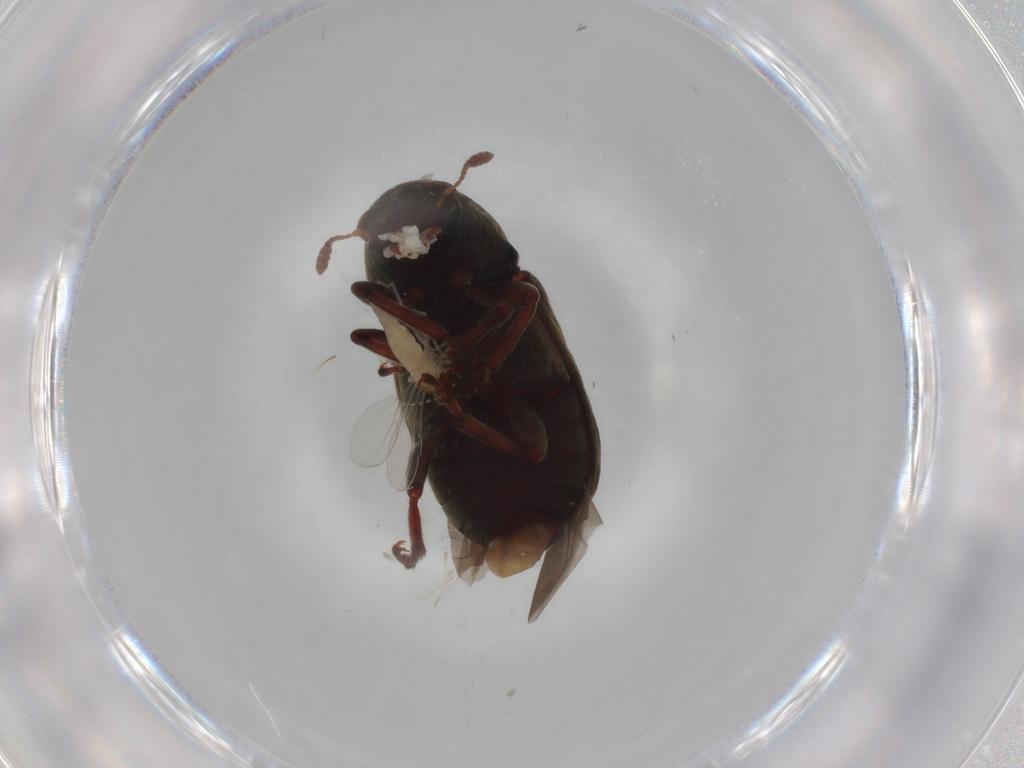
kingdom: Animalia
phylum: Arthropoda
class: Insecta
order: Coleoptera
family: Anthribidae
